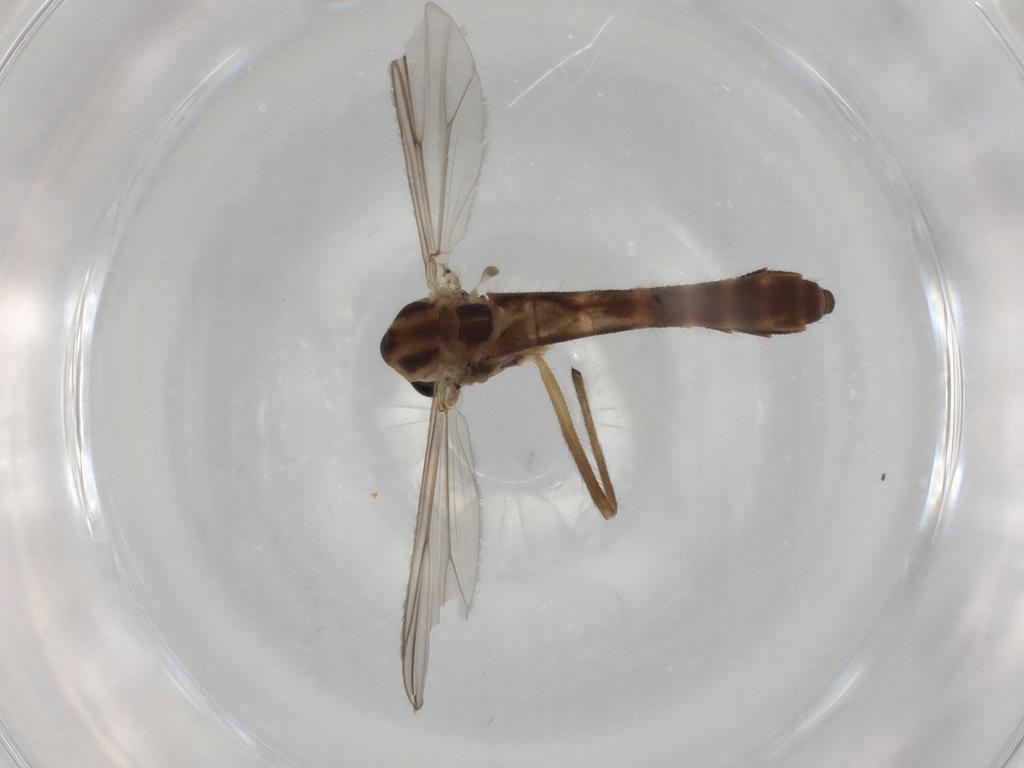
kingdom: Animalia
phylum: Arthropoda
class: Insecta
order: Diptera
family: Chironomidae
